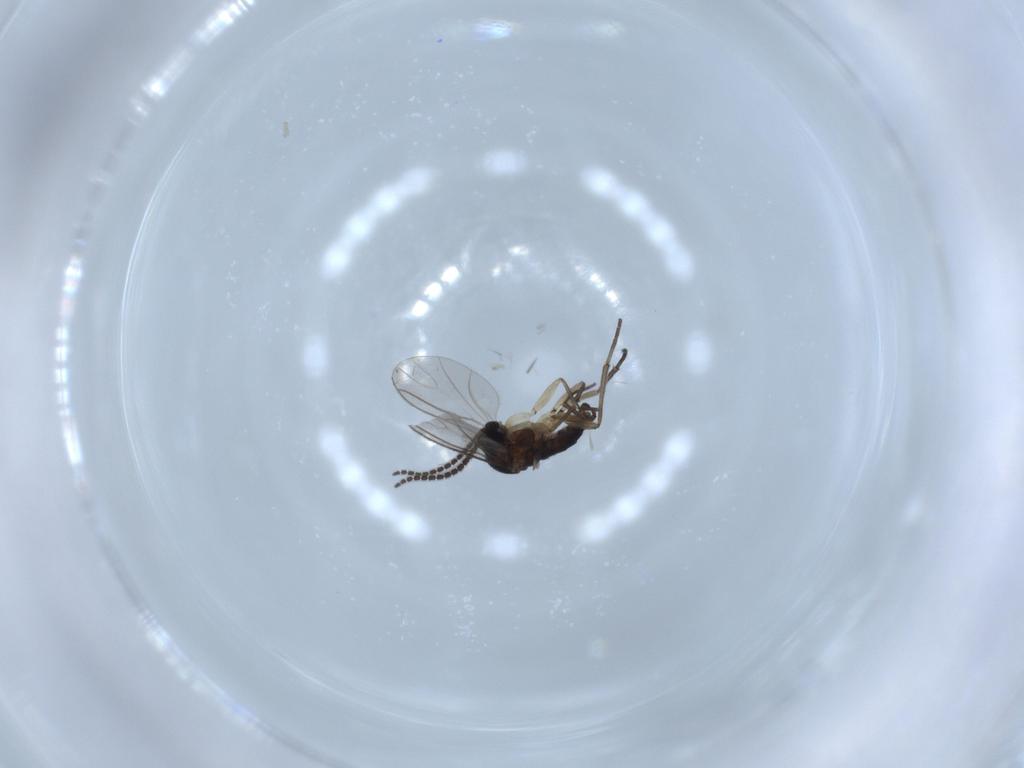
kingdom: Animalia
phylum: Arthropoda
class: Insecta
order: Diptera
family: Sciaridae
